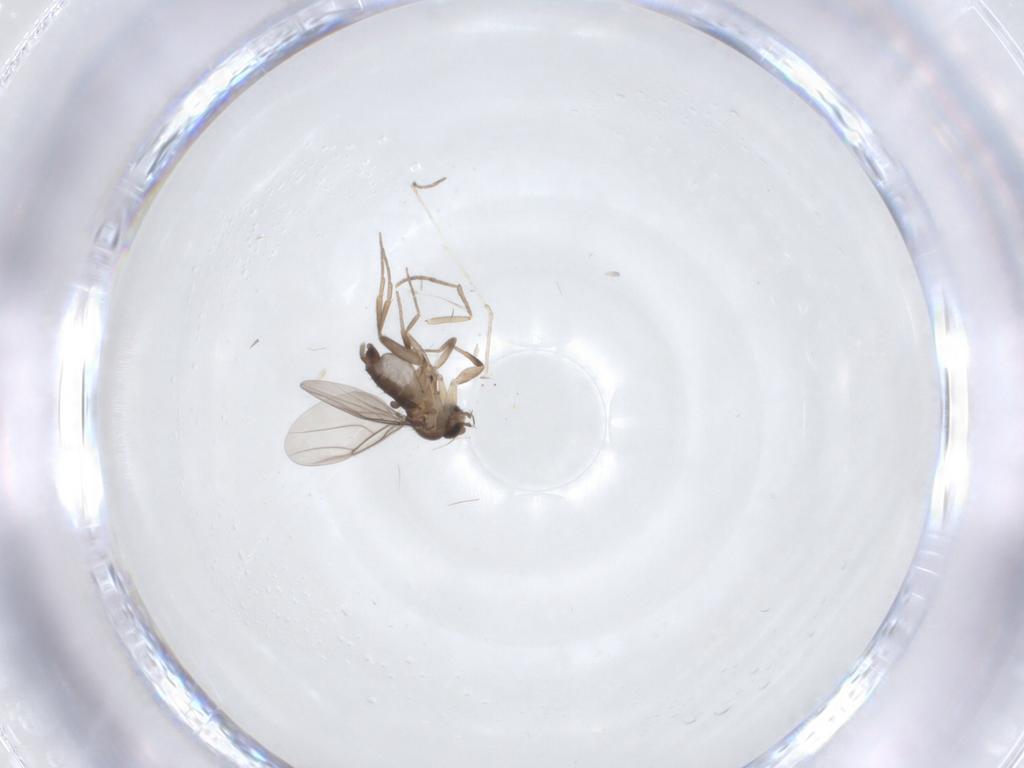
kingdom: Animalia
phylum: Arthropoda
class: Insecta
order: Diptera
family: Phoridae
